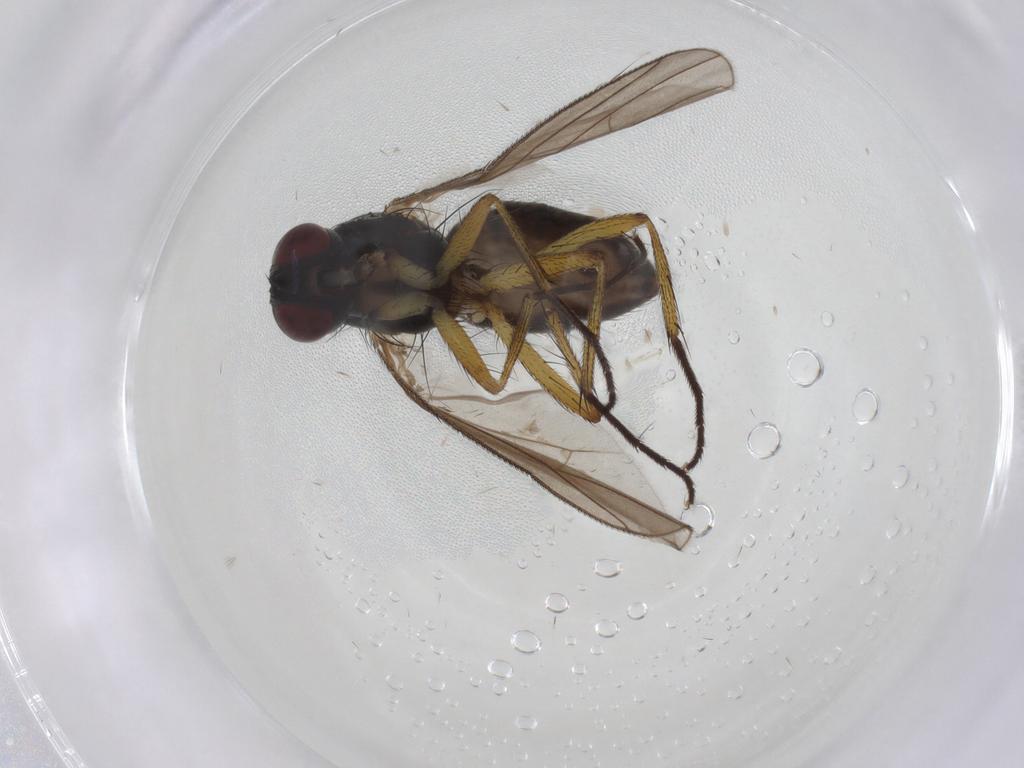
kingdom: Animalia
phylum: Arthropoda
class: Insecta
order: Diptera
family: Muscidae
